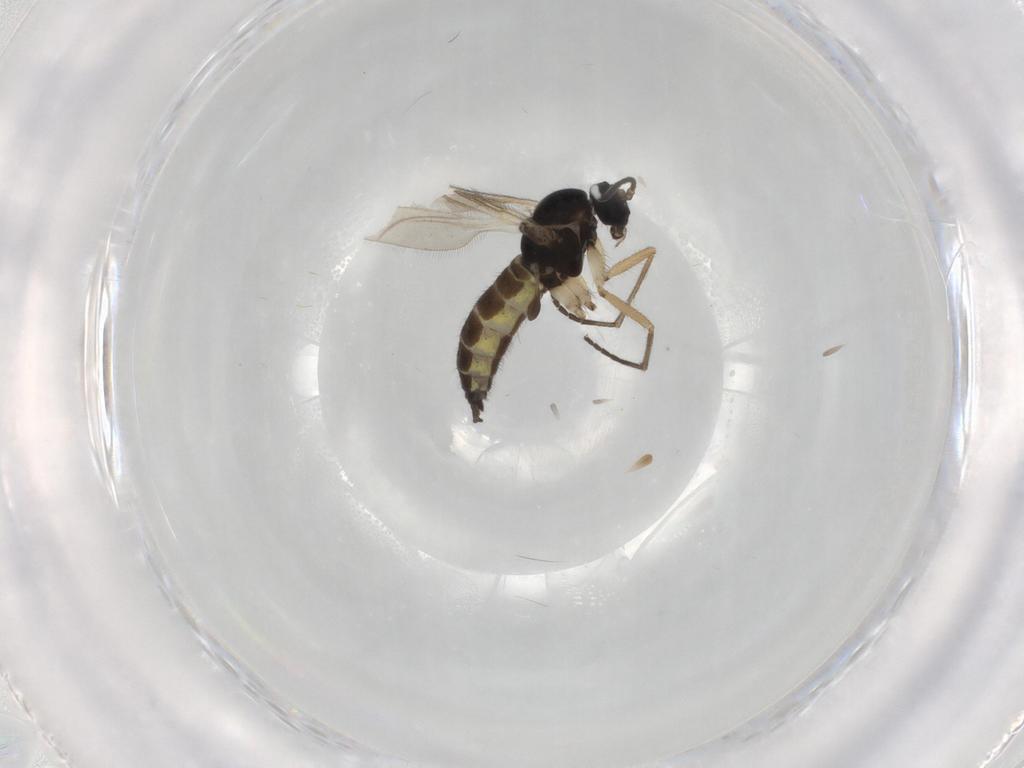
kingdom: Animalia
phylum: Arthropoda
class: Insecta
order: Diptera
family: Sciaridae
